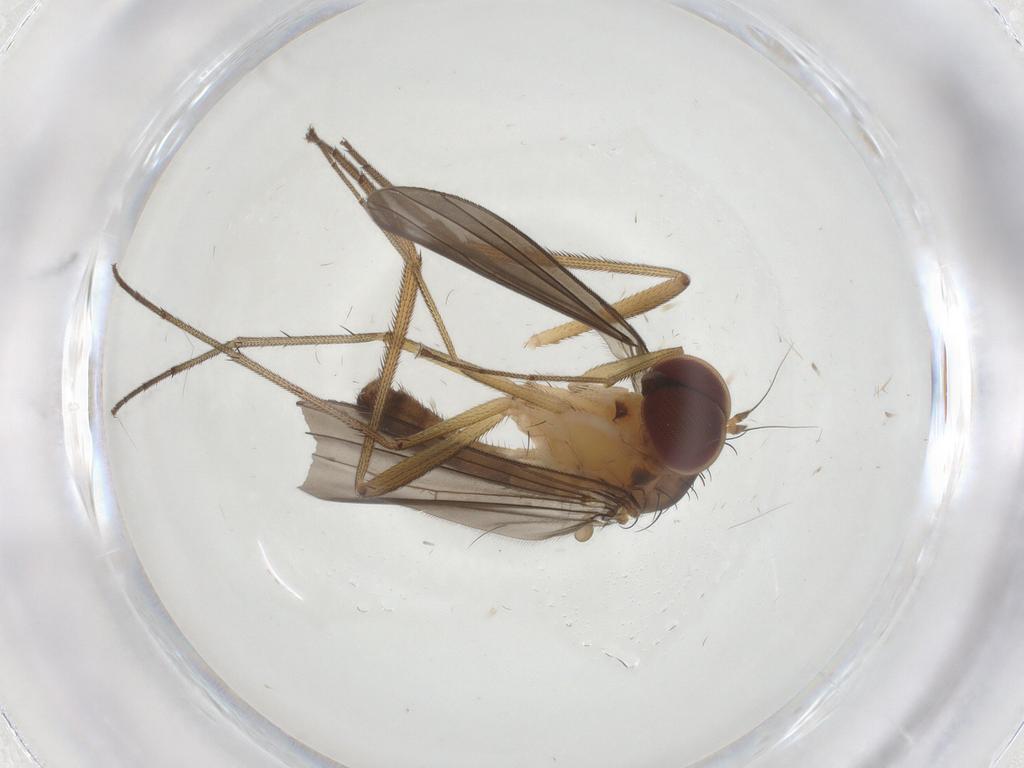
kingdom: Animalia
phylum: Arthropoda
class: Insecta
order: Diptera
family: Dolichopodidae
